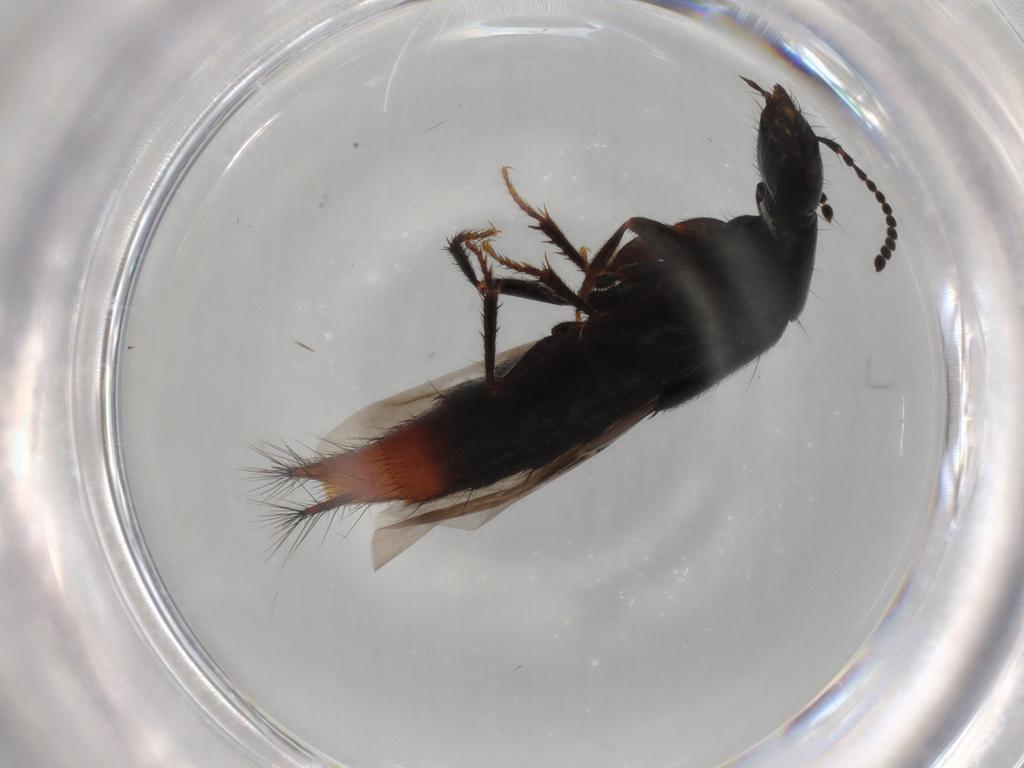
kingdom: Animalia
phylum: Arthropoda
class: Insecta
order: Coleoptera
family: Staphylinidae
